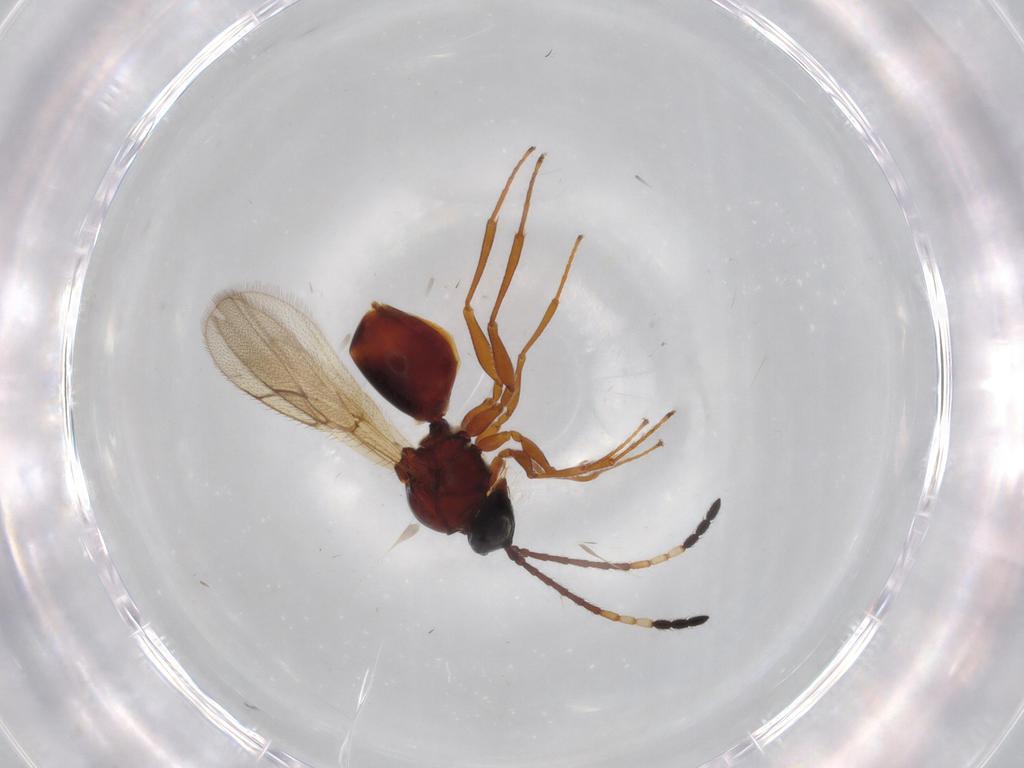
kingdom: Animalia
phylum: Arthropoda
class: Insecta
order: Hymenoptera
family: Figitidae
